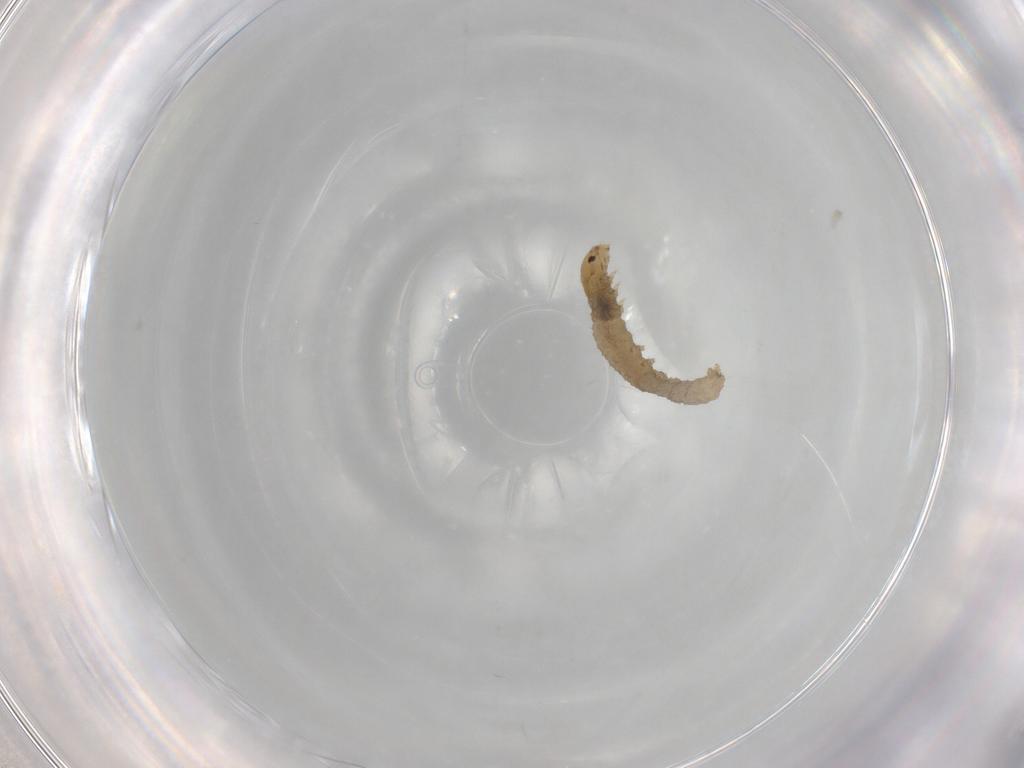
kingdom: Animalia
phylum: Arthropoda
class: Insecta
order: Lepidoptera
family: Tortricidae
